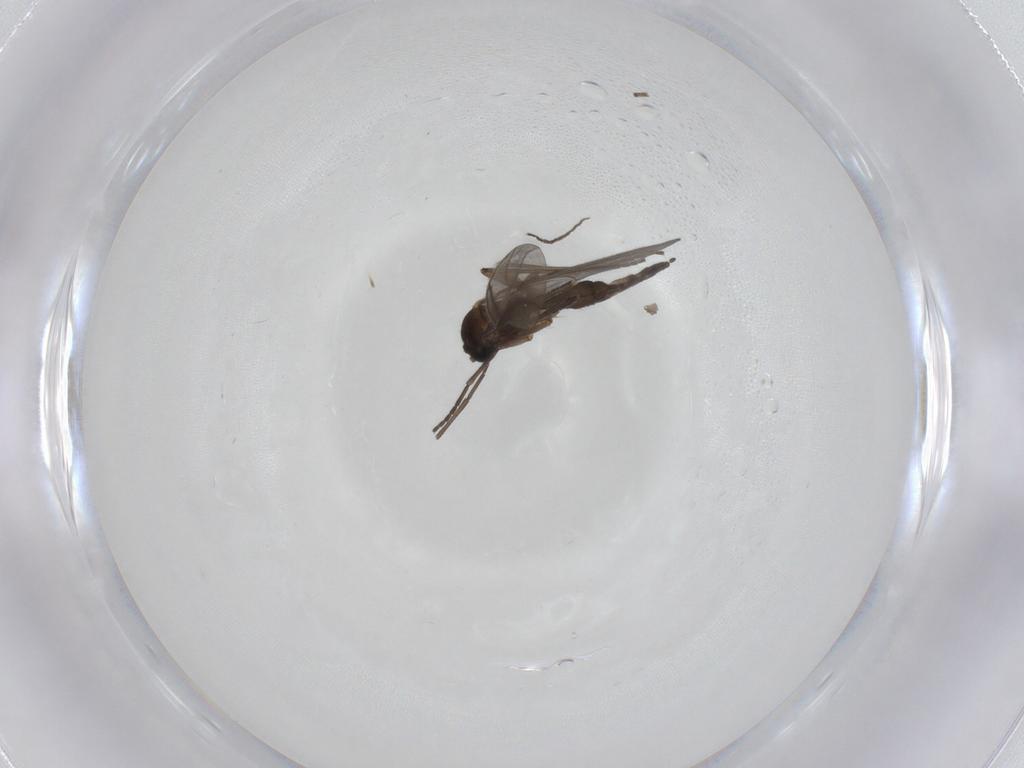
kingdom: Animalia
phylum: Arthropoda
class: Insecta
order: Diptera
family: Sciaridae
